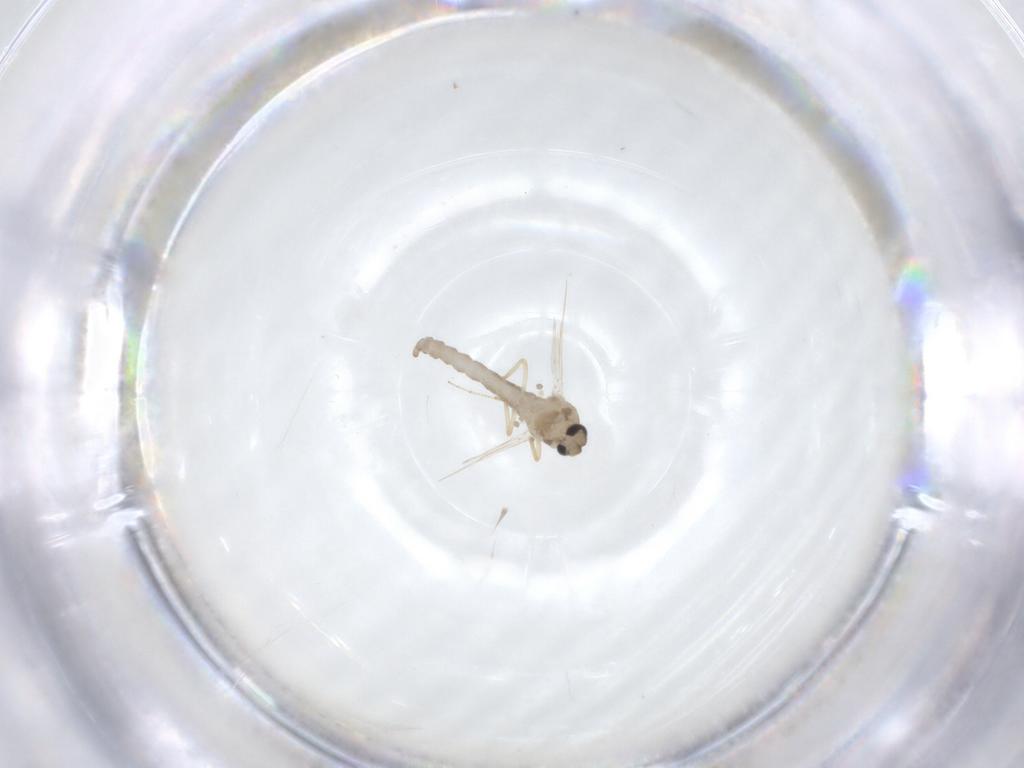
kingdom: Animalia
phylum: Arthropoda
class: Insecta
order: Diptera
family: Ceratopogonidae
